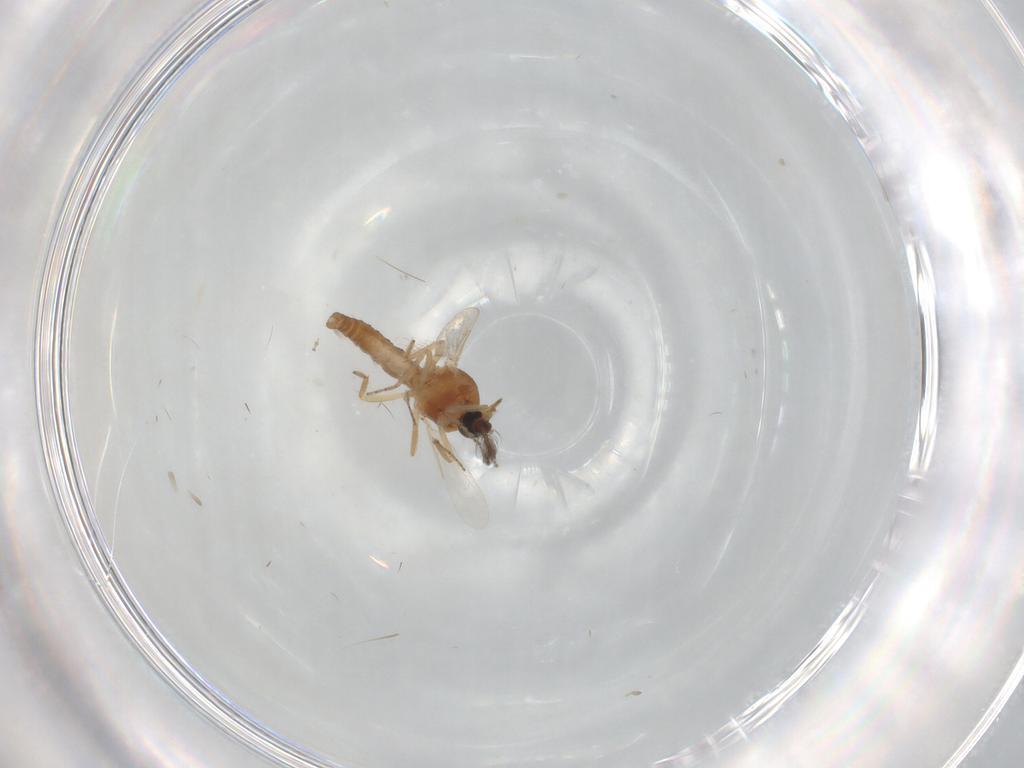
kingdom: Animalia
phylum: Arthropoda
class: Insecta
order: Diptera
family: Ceratopogonidae
